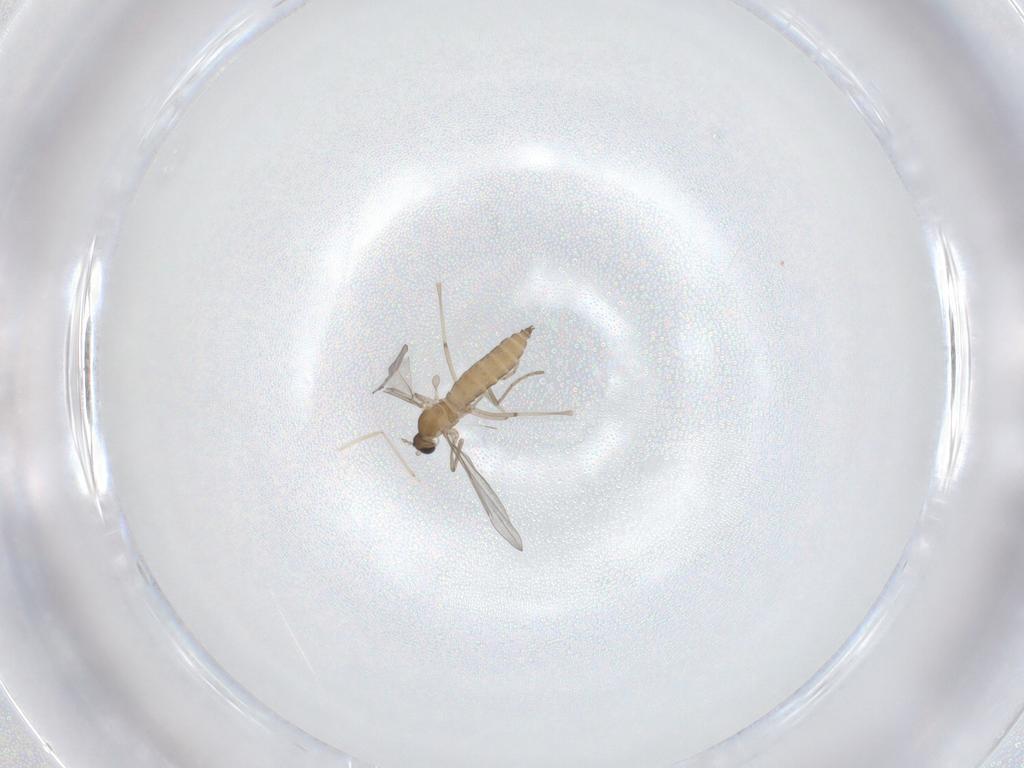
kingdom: Animalia
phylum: Arthropoda
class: Insecta
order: Diptera
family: Cecidomyiidae
